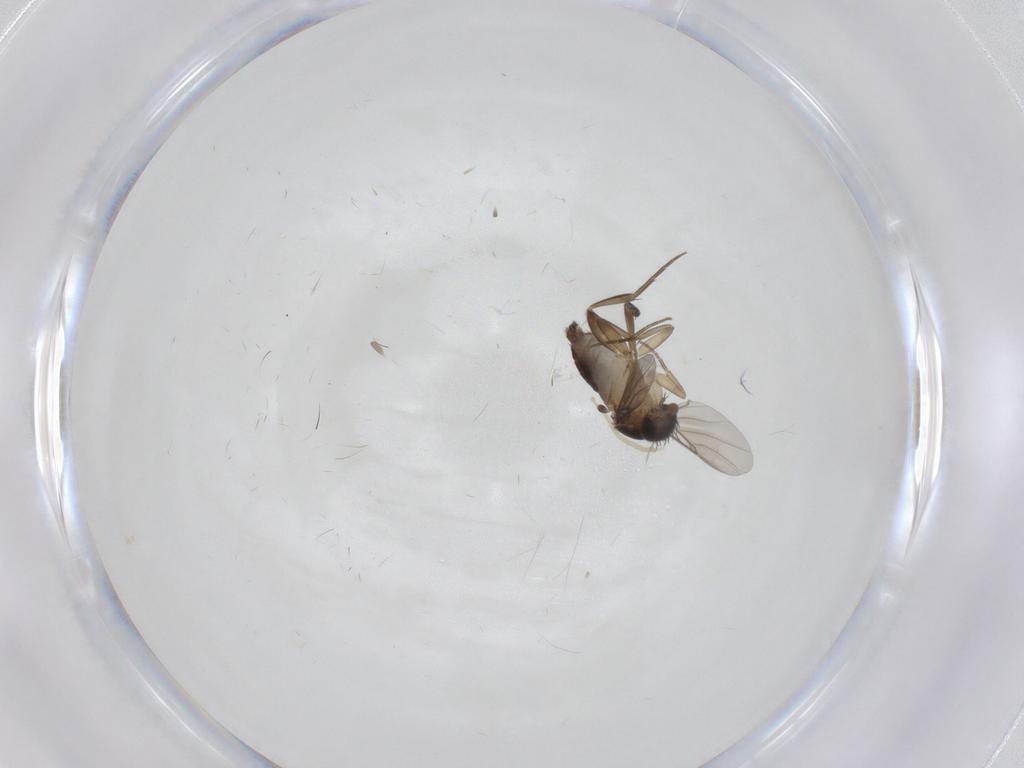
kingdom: Animalia
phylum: Arthropoda
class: Insecta
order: Diptera
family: Phoridae
